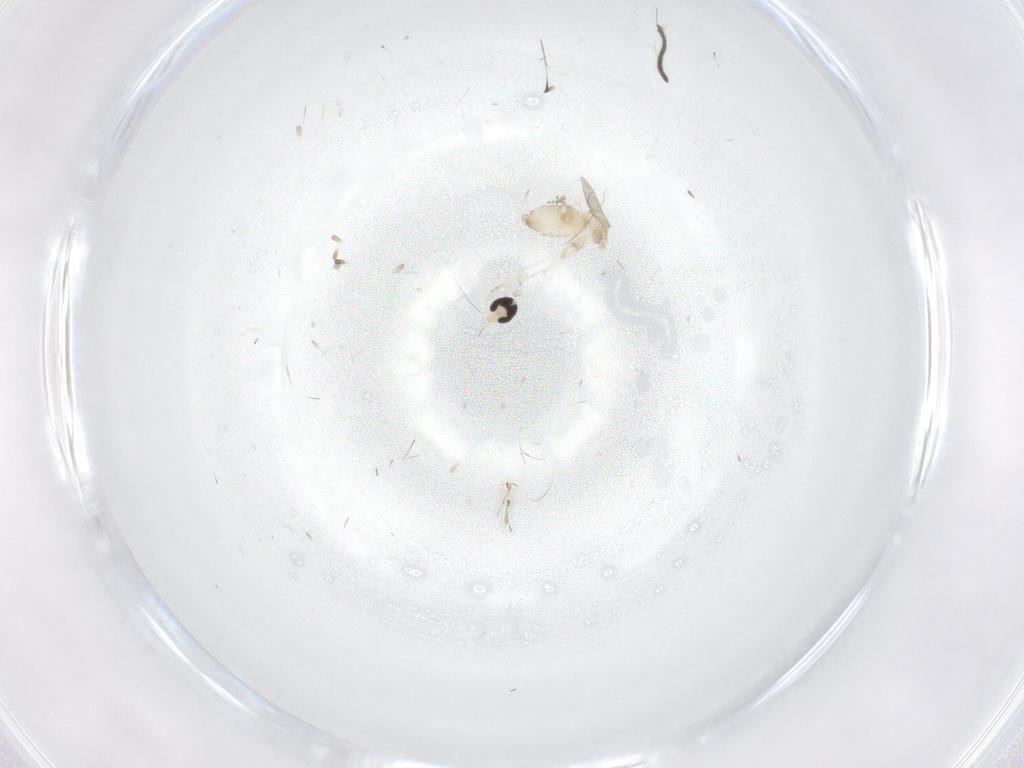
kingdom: Animalia
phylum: Arthropoda
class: Insecta
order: Diptera
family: Cecidomyiidae
